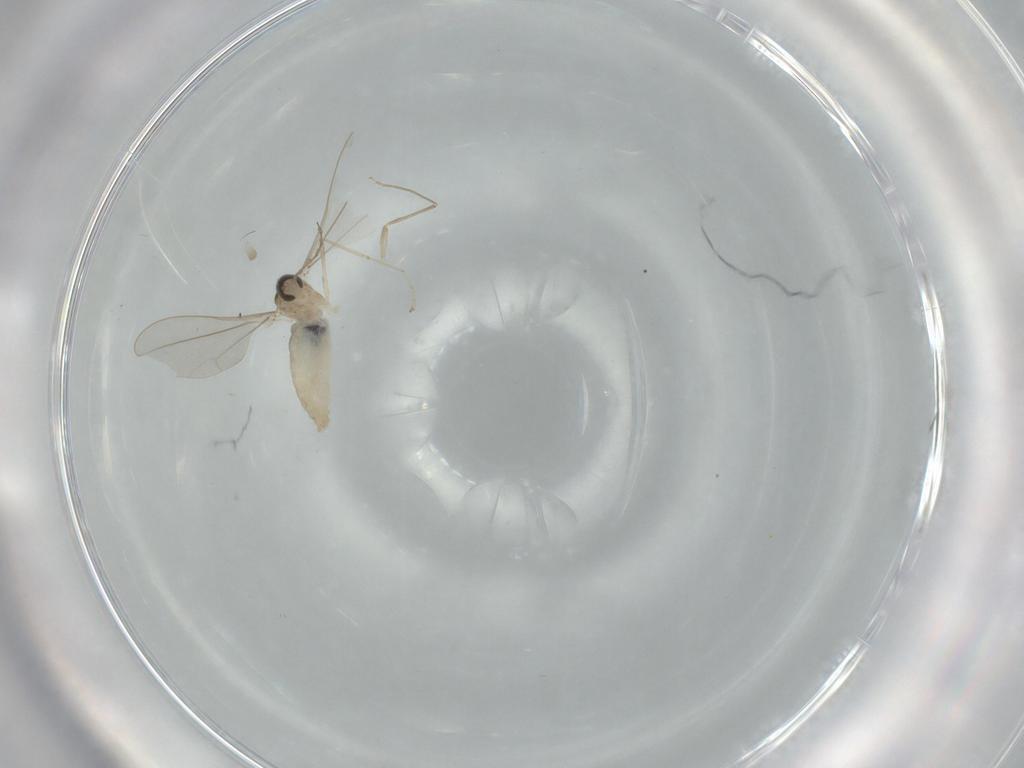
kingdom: Animalia
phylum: Arthropoda
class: Insecta
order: Diptera
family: Cecidomyiidae
